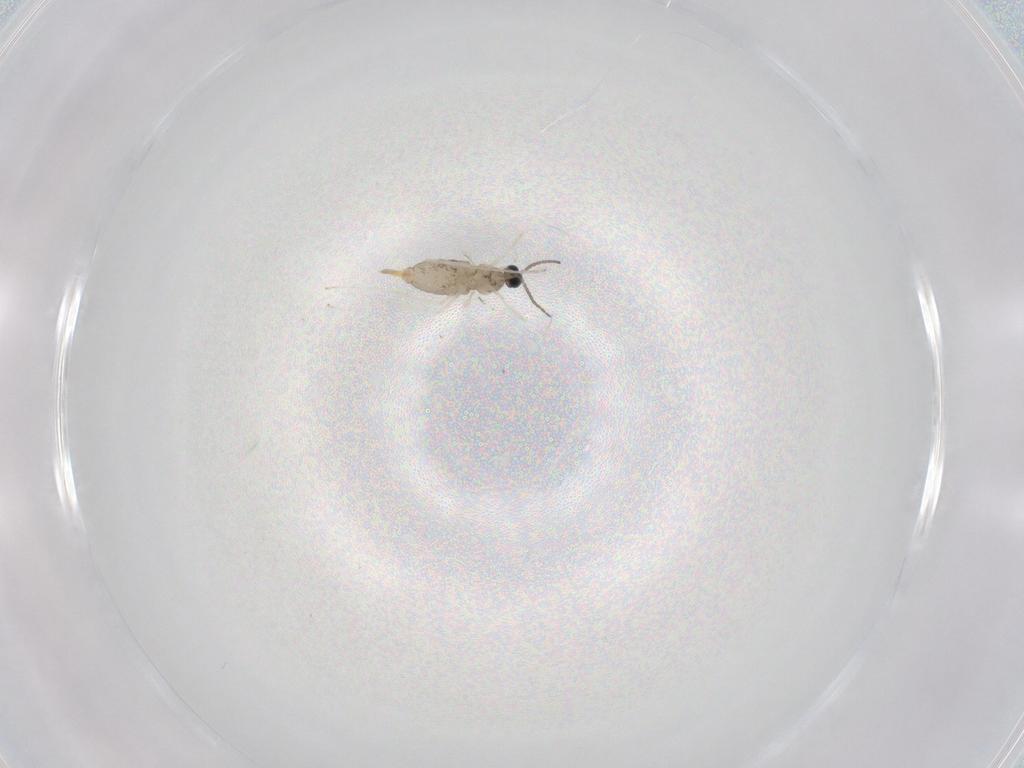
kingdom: Animalia
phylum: Arthropoda
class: Insecta
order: Diptera
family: Cecidomyiidae
